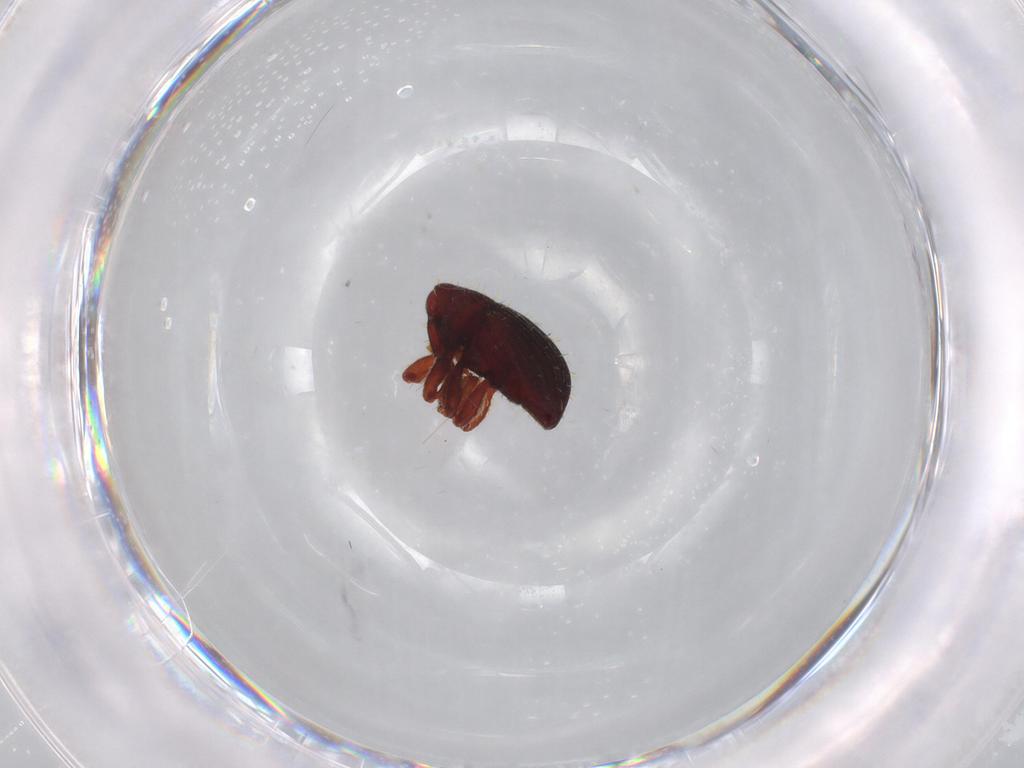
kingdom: Animalia
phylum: Arthropoda
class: Insecta
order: Coleoptera
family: Curculionidae
